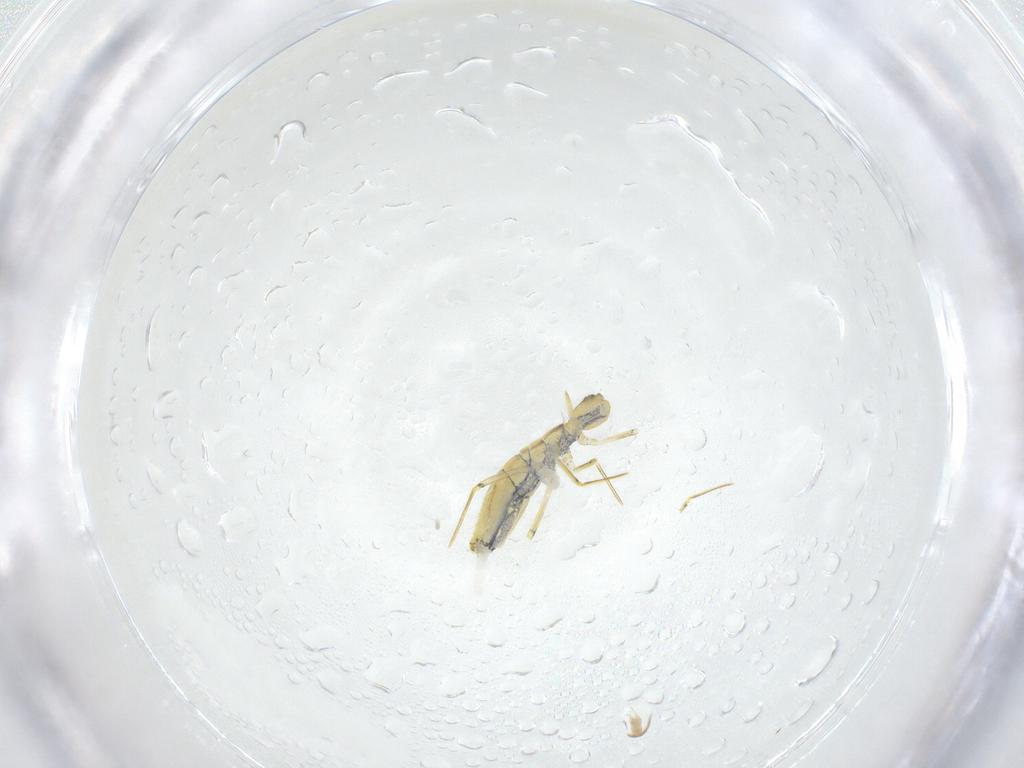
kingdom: Animalia
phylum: Arthropoda
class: Collembola
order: Entomobryomorpha
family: Paronellidae
